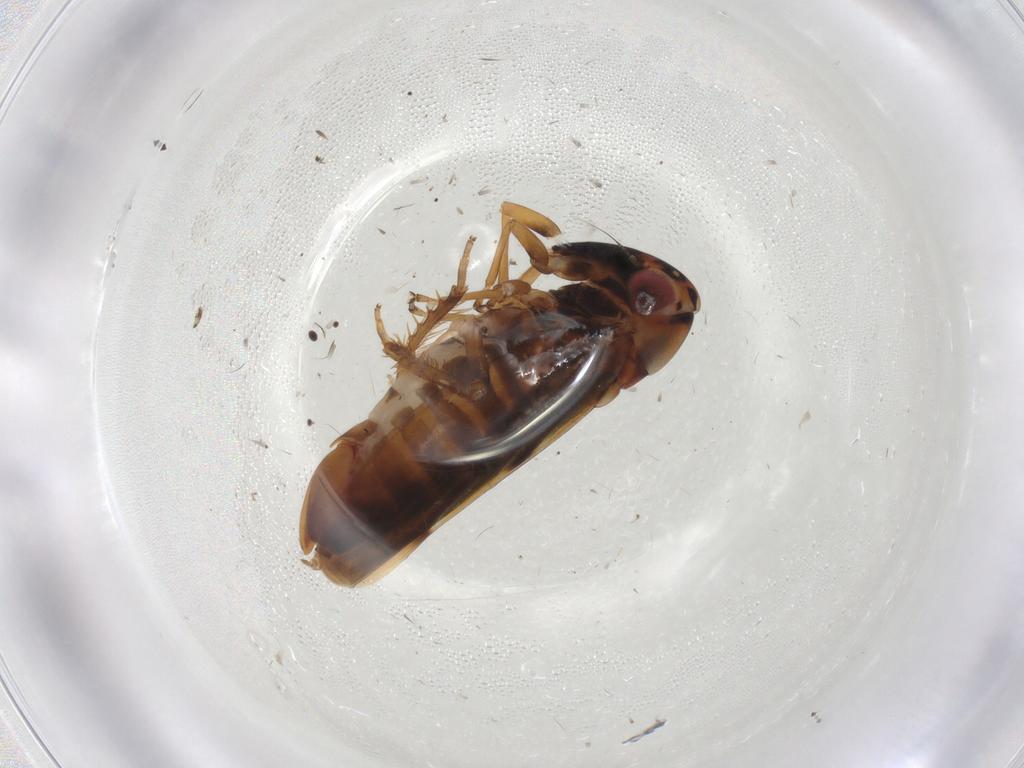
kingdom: Animalia
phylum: Arthropoda
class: Insecta
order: Hemiptera
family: Cicadellidae
